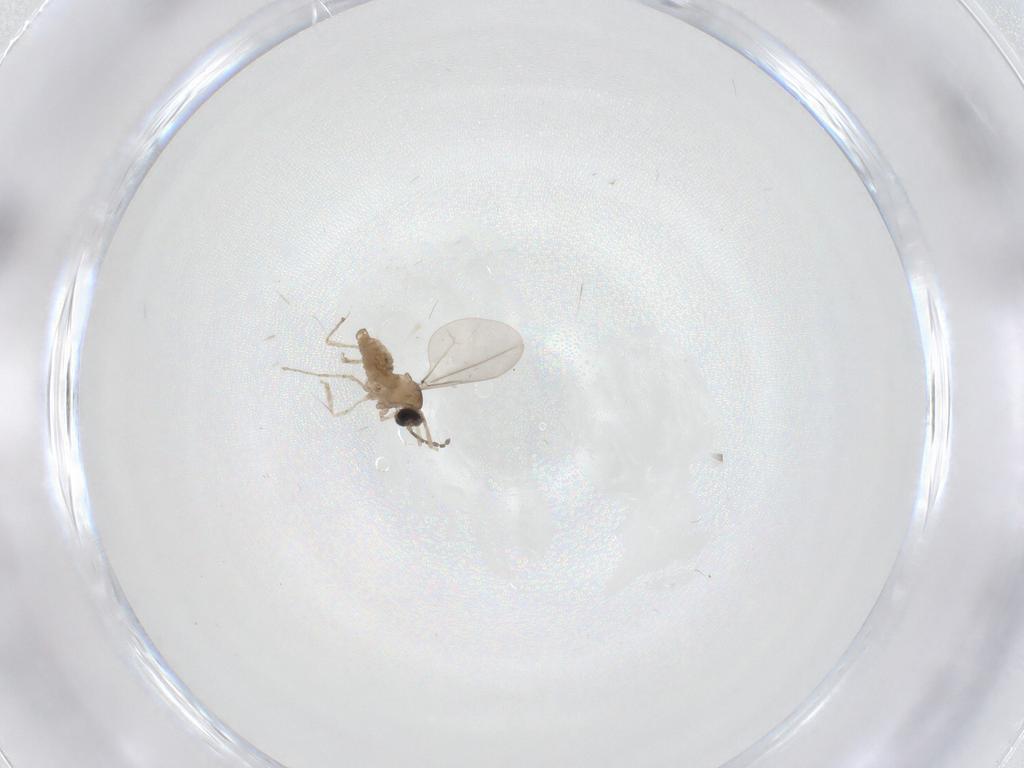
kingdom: Animalia
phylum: Arthropoda
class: Insecta
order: Diptera
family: Cecidomyiidae
